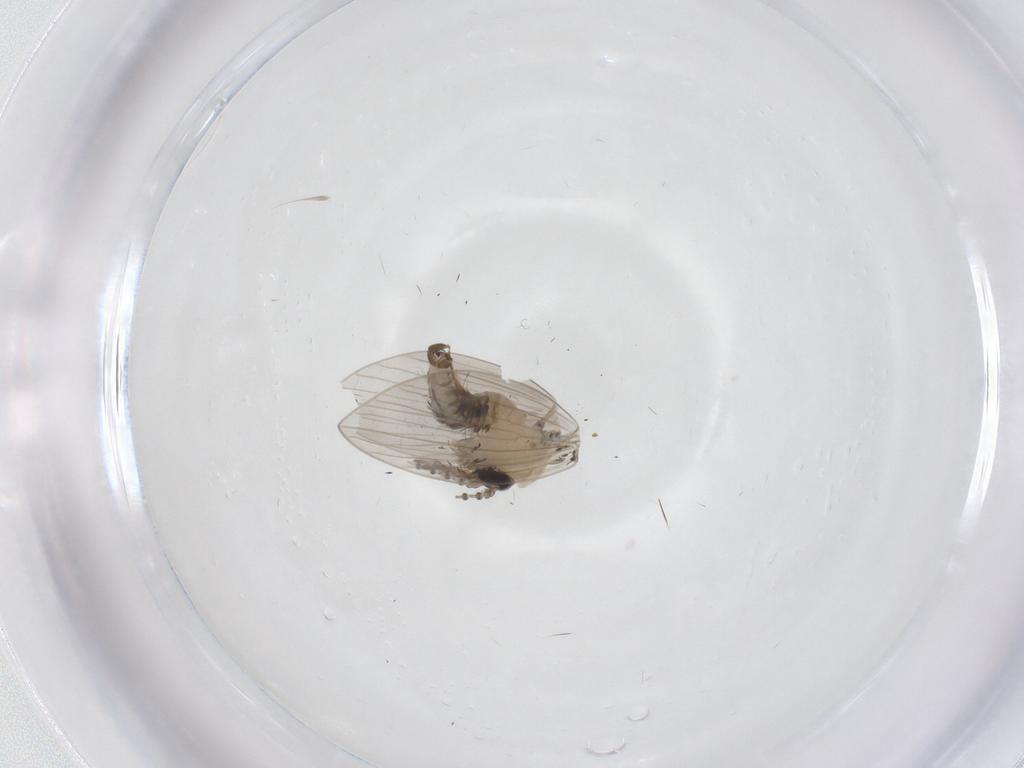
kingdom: Animalia
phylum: Arthropoda
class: Insecta
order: Diptera
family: Psychodidae
